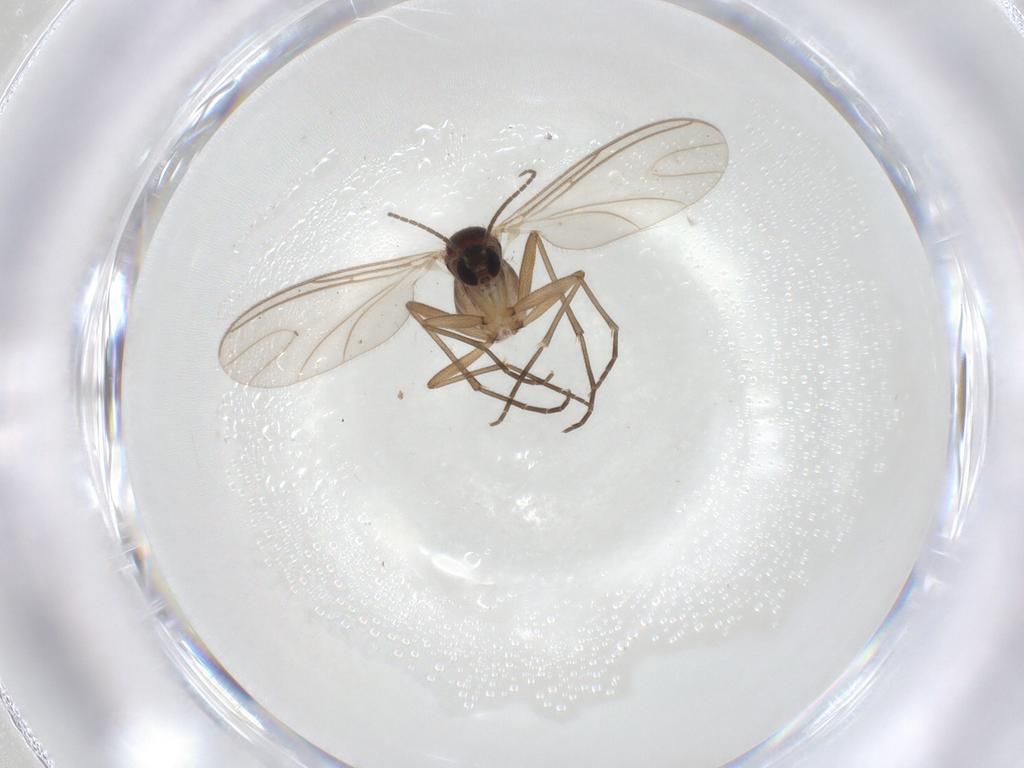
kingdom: Animalia
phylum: Arthropoda
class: Insecta
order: Diptera
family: Sciaridae
